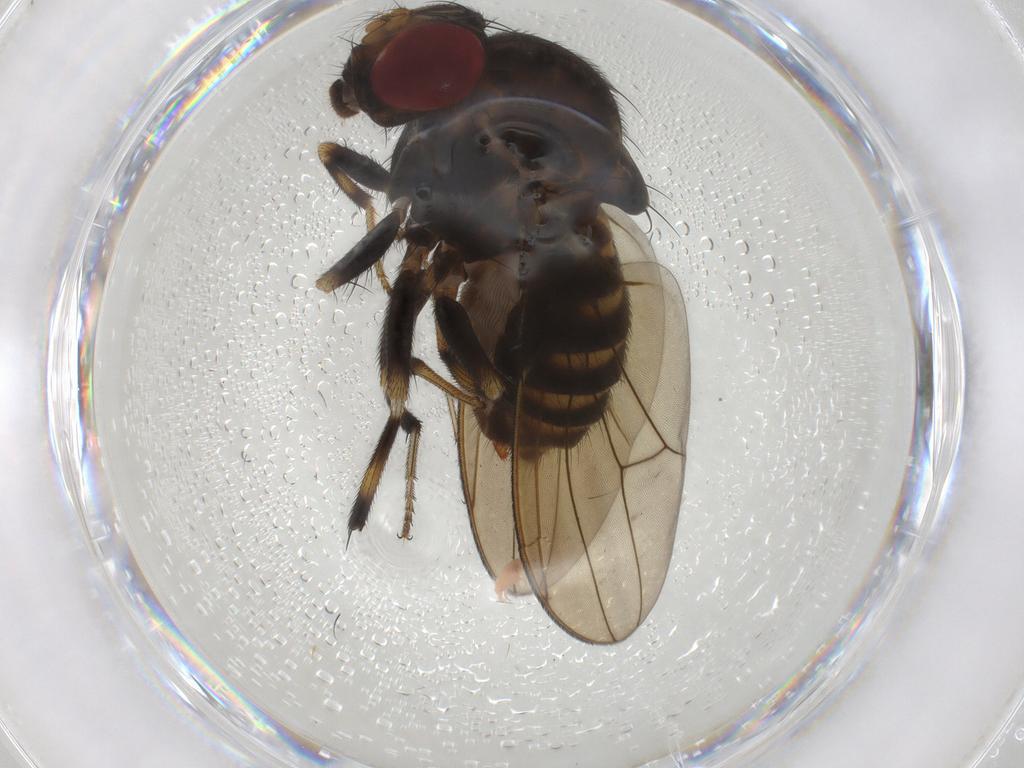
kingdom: Animalia
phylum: Arthropoda
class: Insecta
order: Diptera
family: Drosophilidae
